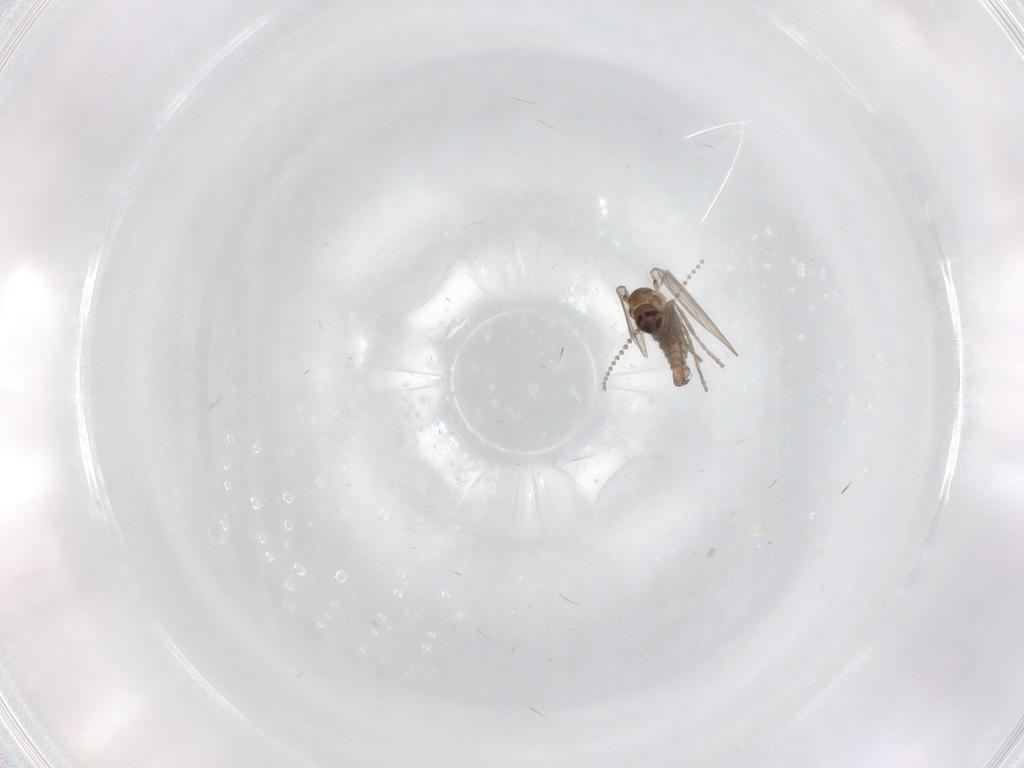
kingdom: Animalia
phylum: Arthropoda
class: Insecta
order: Diptera
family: Psychodidae
